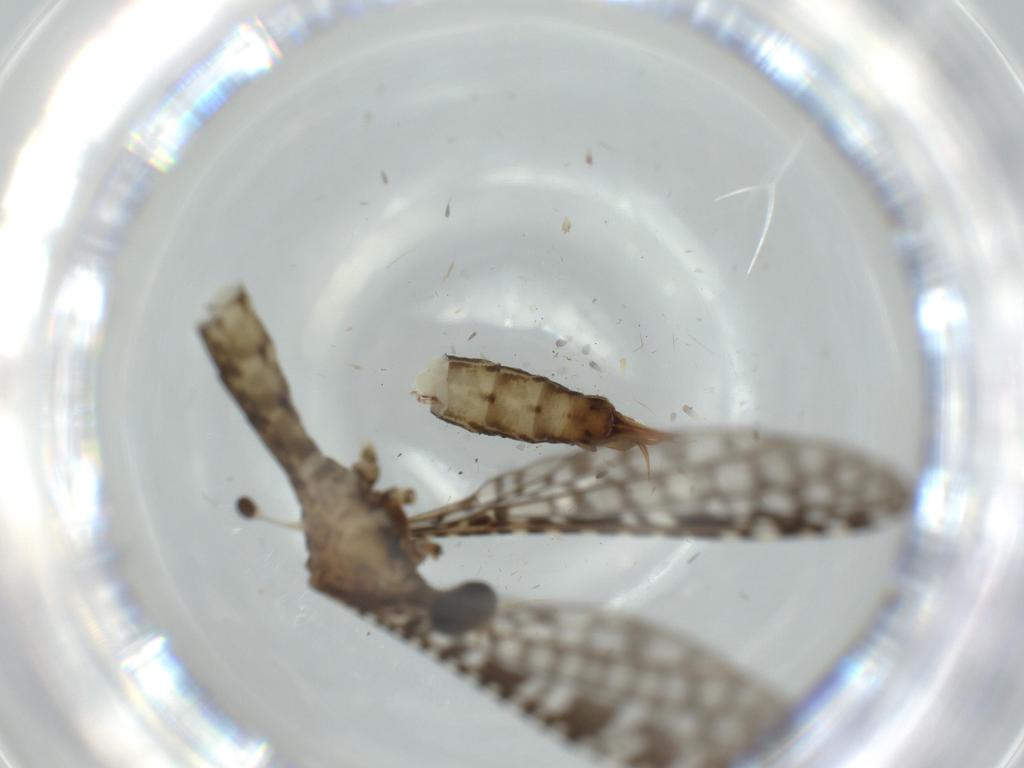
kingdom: Animalia
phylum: Arthropoda
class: Insecta
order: Diptera
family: Limoniidae
